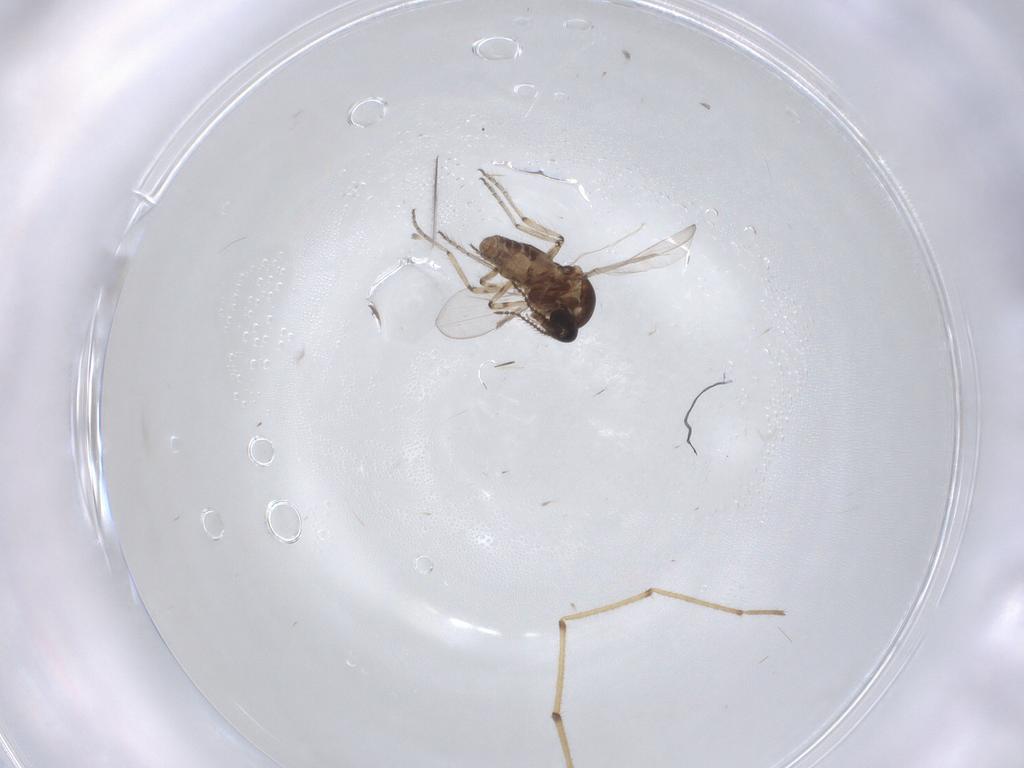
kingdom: Animalia
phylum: Arthropoda
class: Insecta
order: Diptera
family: Ceratopogonidae
